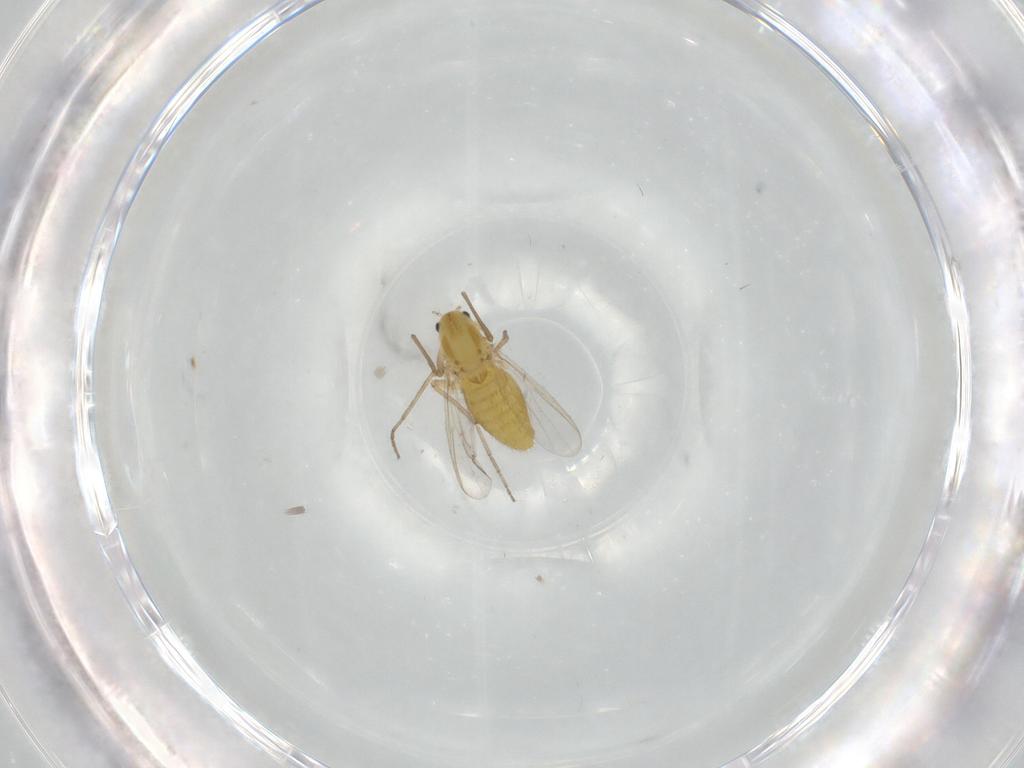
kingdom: Animalia
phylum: Arthropoda
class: Insecta
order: Diptera
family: Chironomidae
